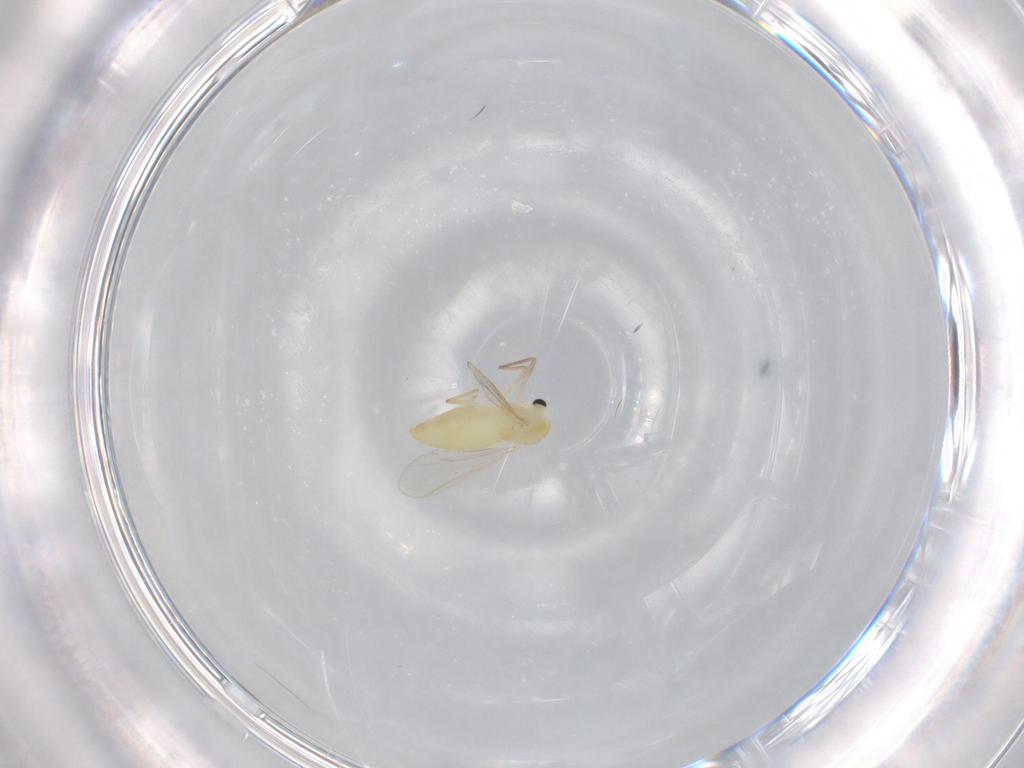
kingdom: Animalia
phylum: Arthropoda
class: Insecta
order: Diptera
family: Chironomidae
